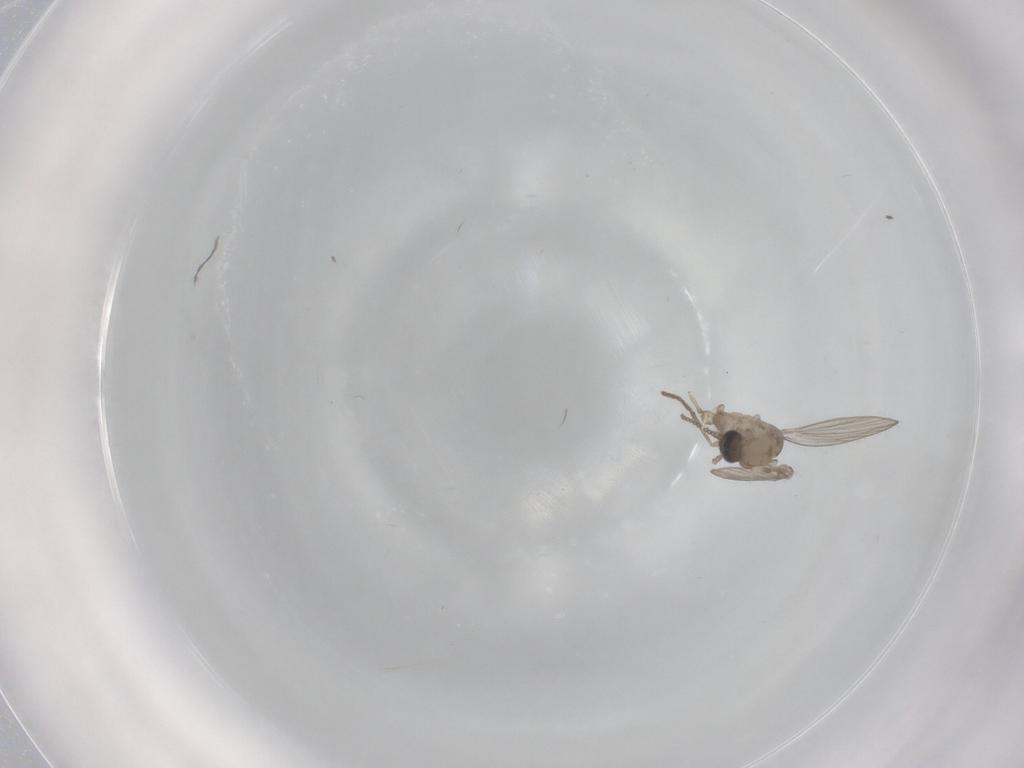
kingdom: Animalia
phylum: Arthropoda
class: Insecta
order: Diptera
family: Psychodidae
